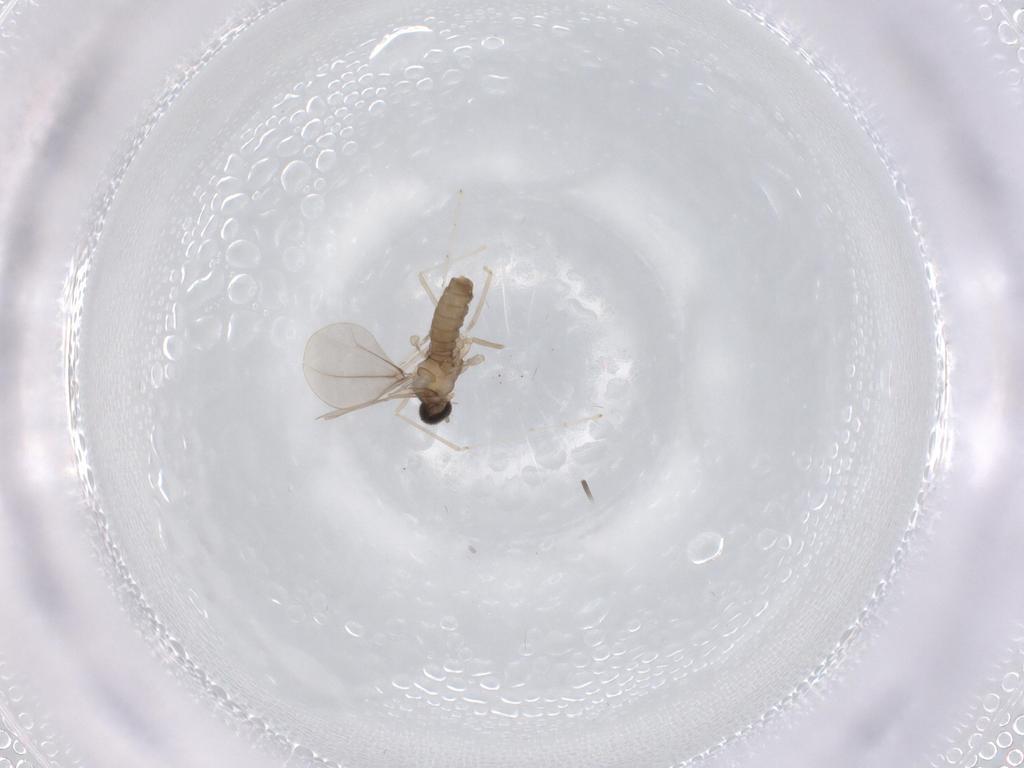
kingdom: Animalia
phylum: Arthropoda
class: Insecta
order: Diptera
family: Cecidomyiidae
